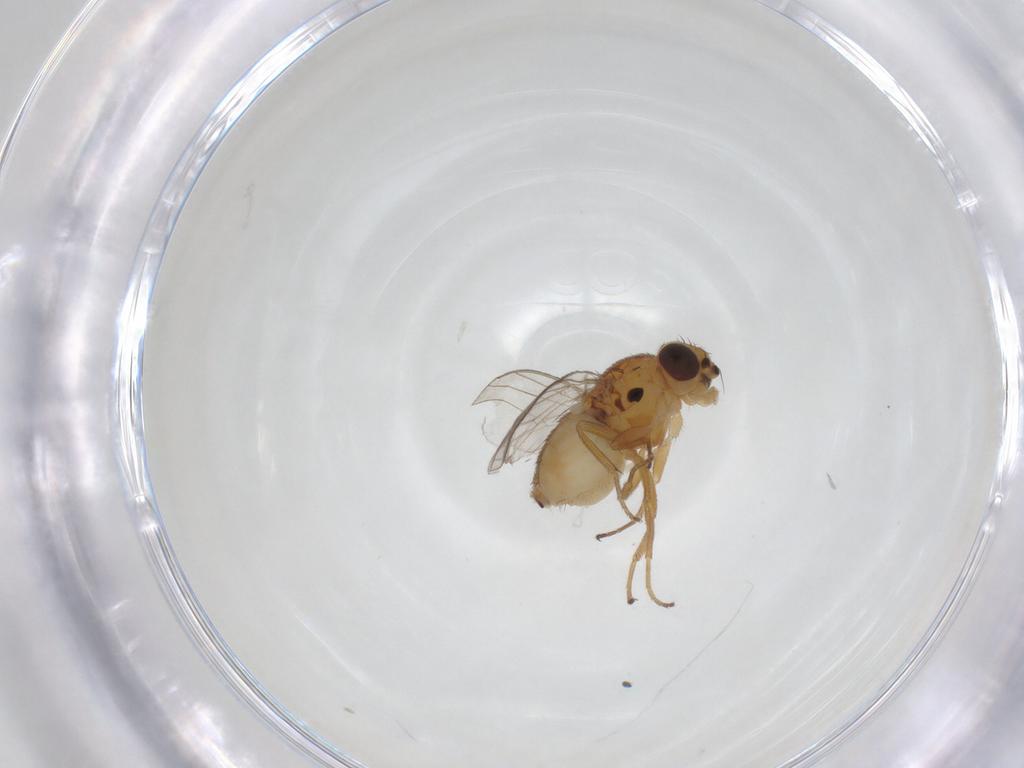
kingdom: Animalia
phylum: Arthropoda
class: Insecta
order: Diptera
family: Chloropidae
